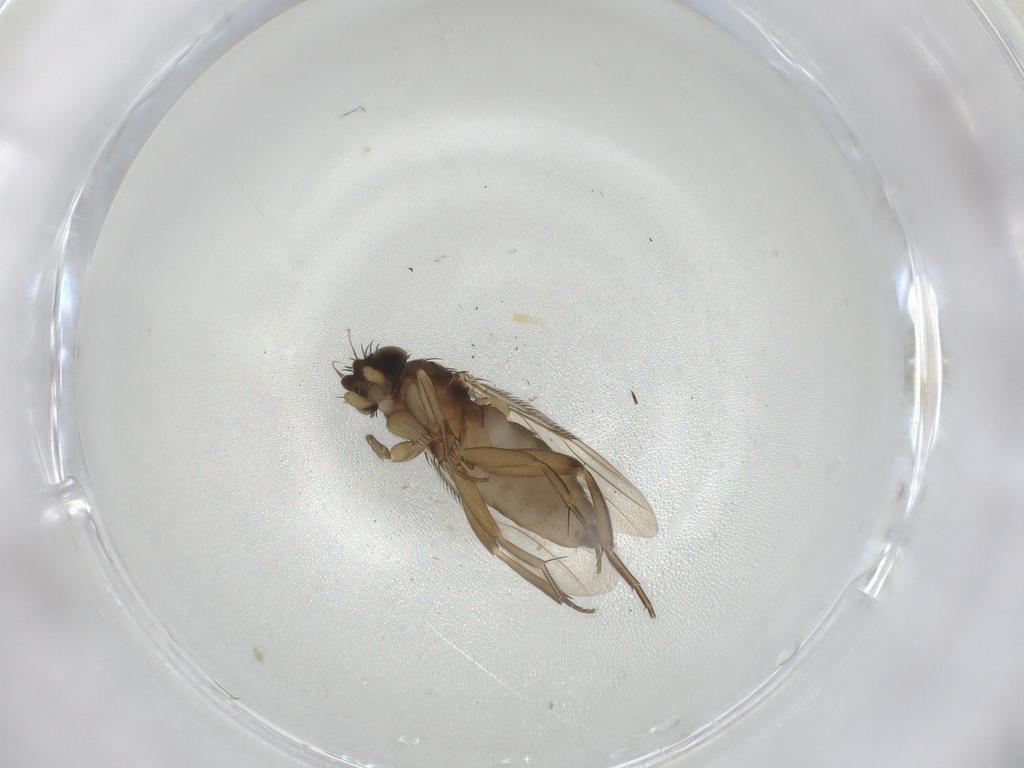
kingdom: Animalia
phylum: Arthropoda
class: Insecta
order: Diptera
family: Phoridae
